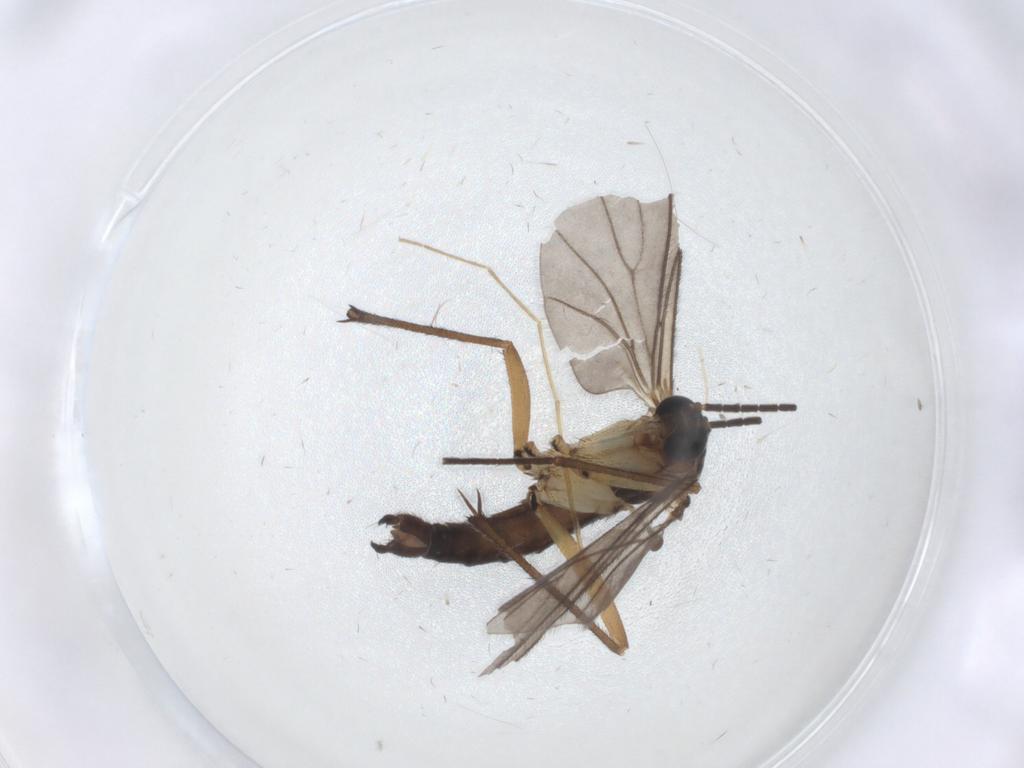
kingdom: Animalia
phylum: Arthropoda
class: Insecta
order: Diptera
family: Sciaridae
